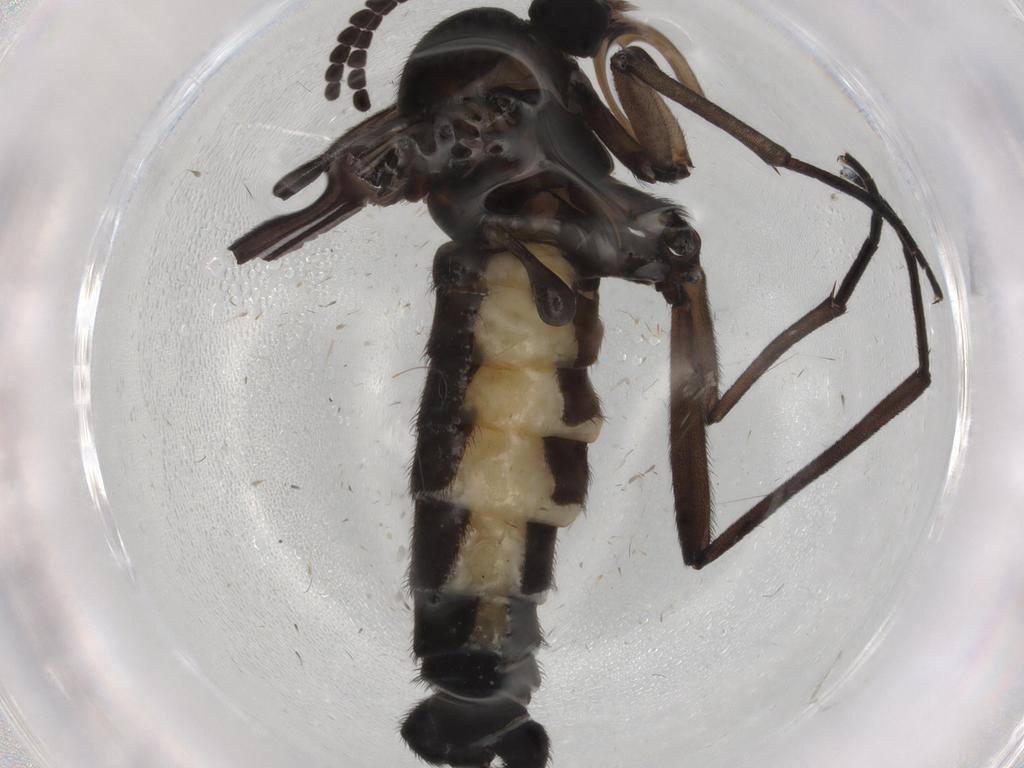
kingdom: Animalia
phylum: Arthropoda
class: Insecta
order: Diptera
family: Sciaridae
